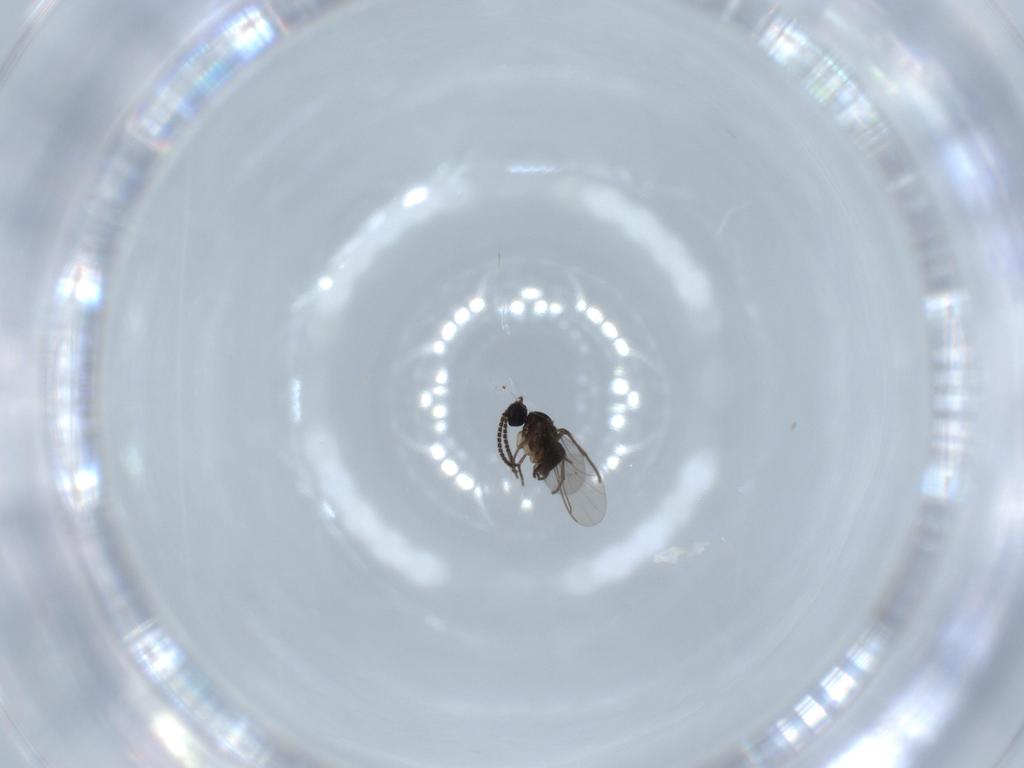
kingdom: Animalia
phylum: Arthropoda
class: Insecta
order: Diptera
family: Sciaridae
